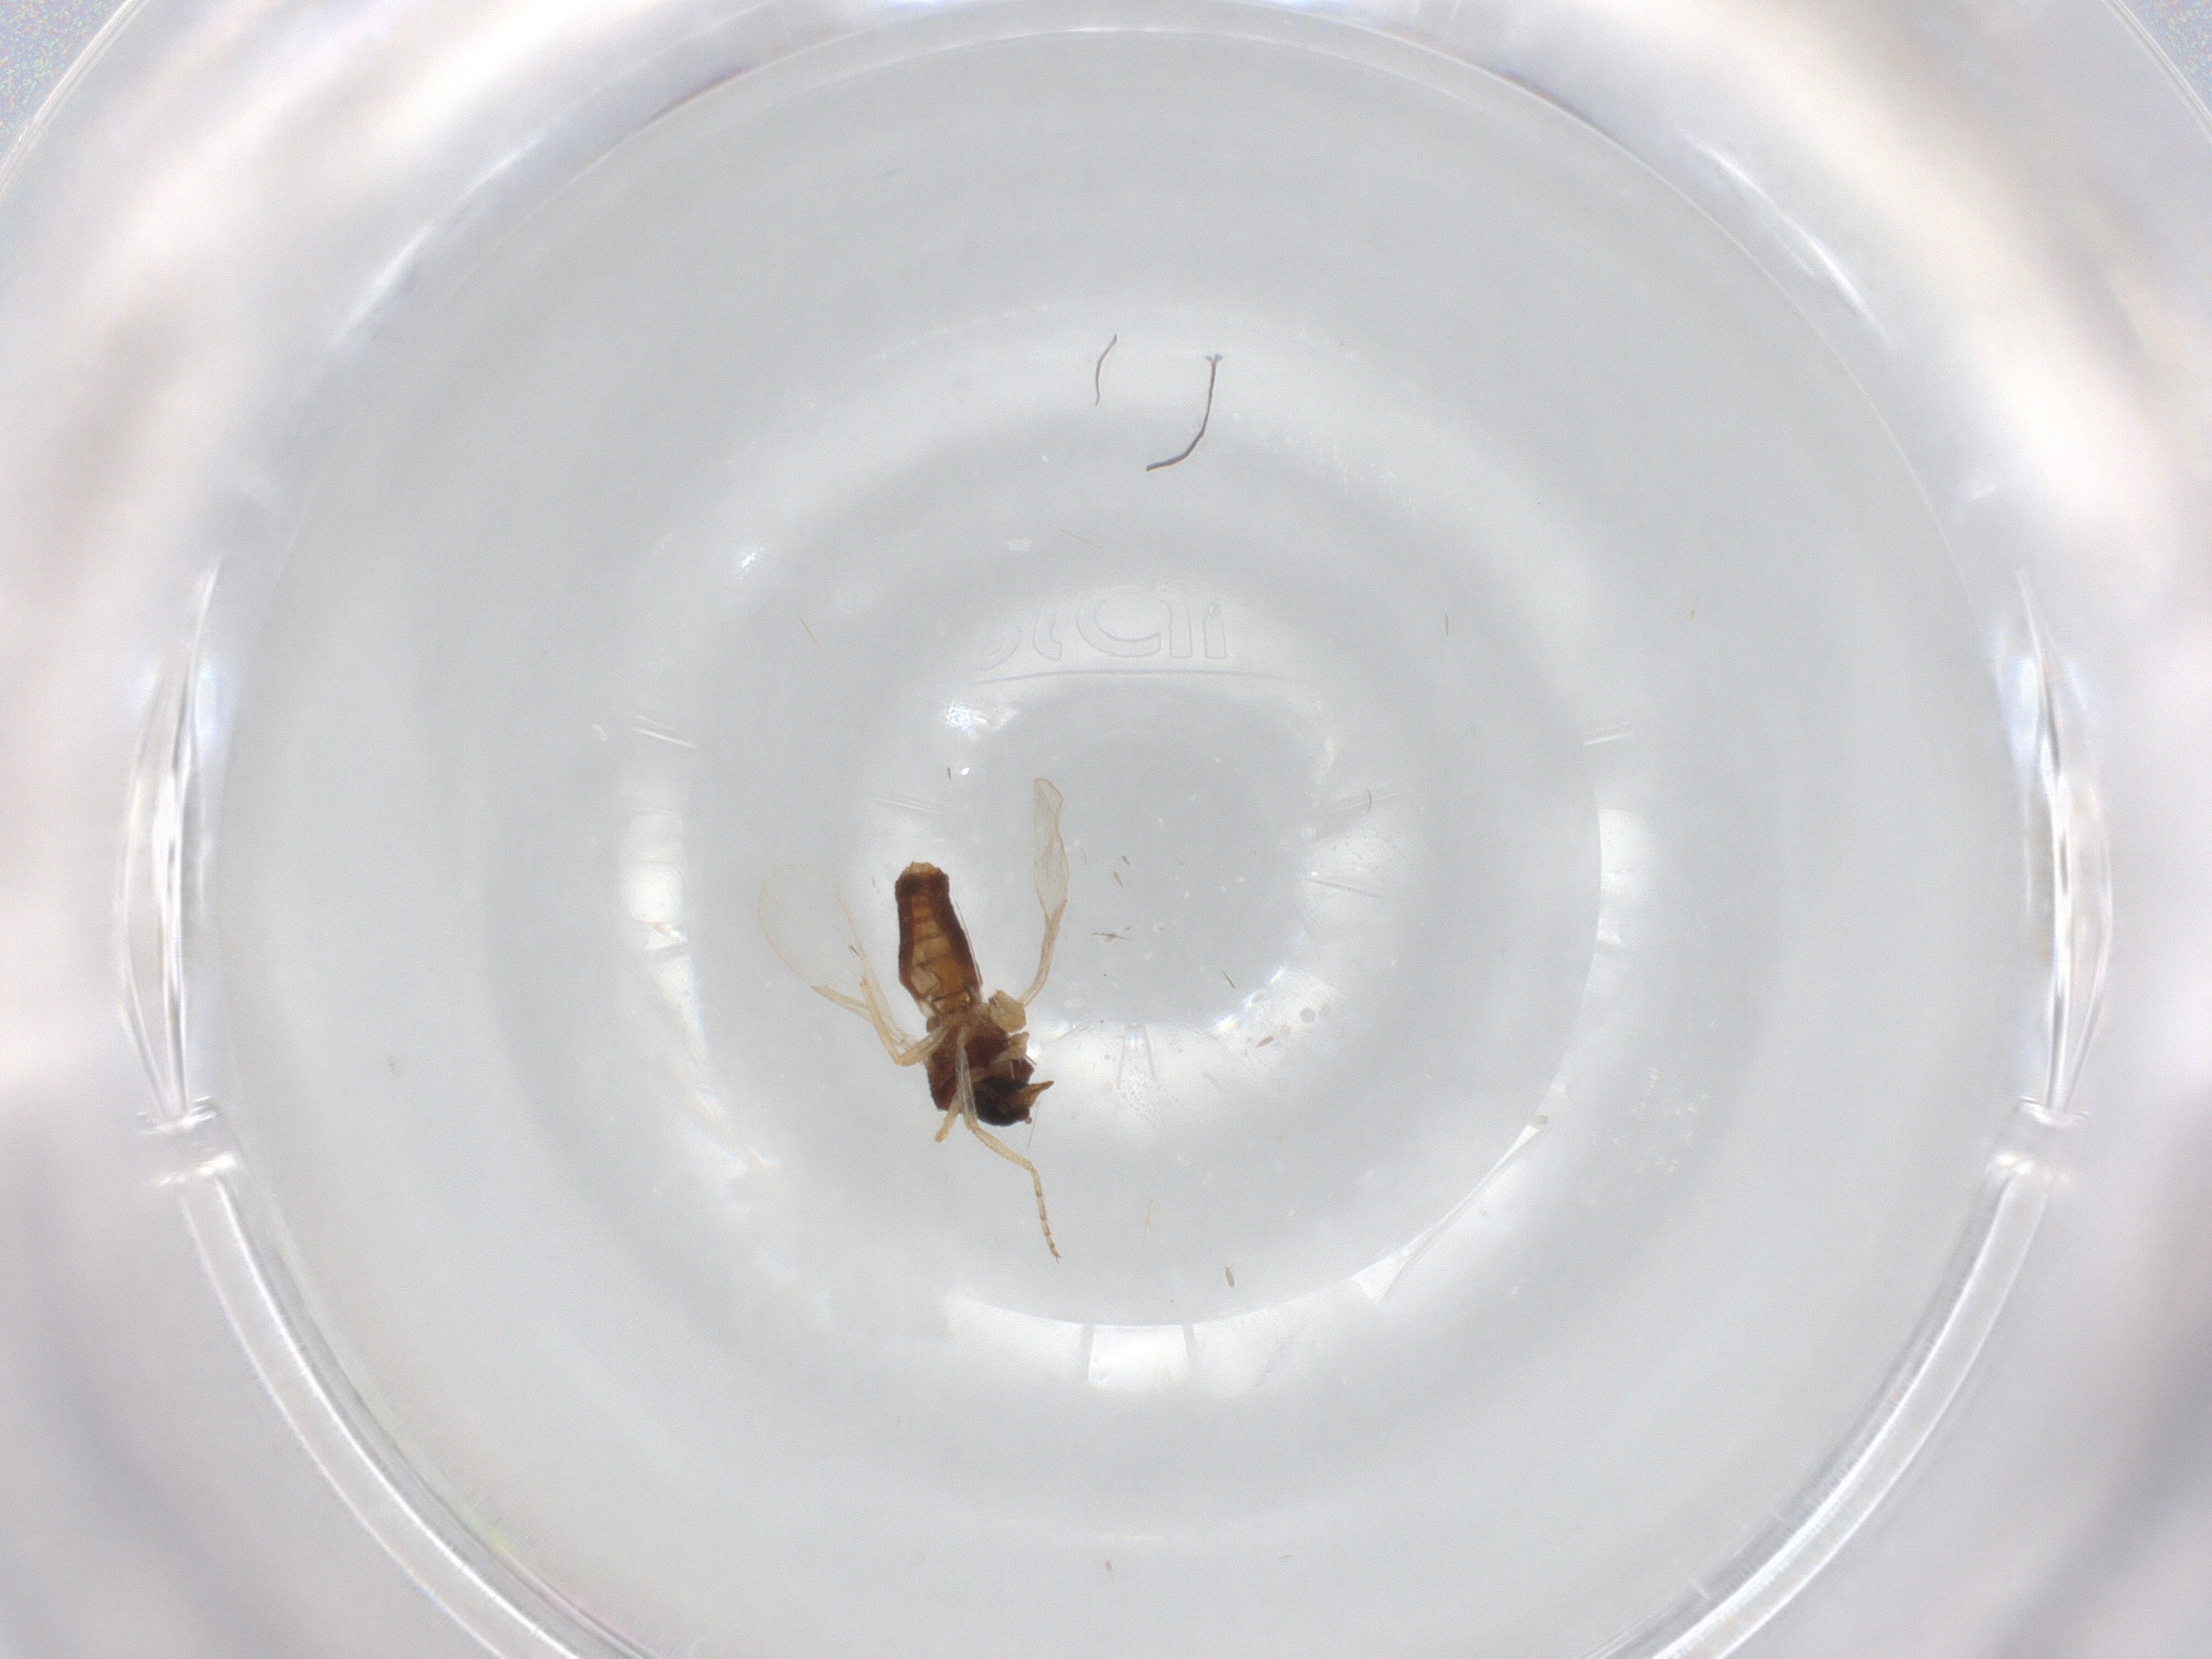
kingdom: Animalia
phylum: Arthropoda
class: Insecta
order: Diptera
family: Ceratopogonidae
